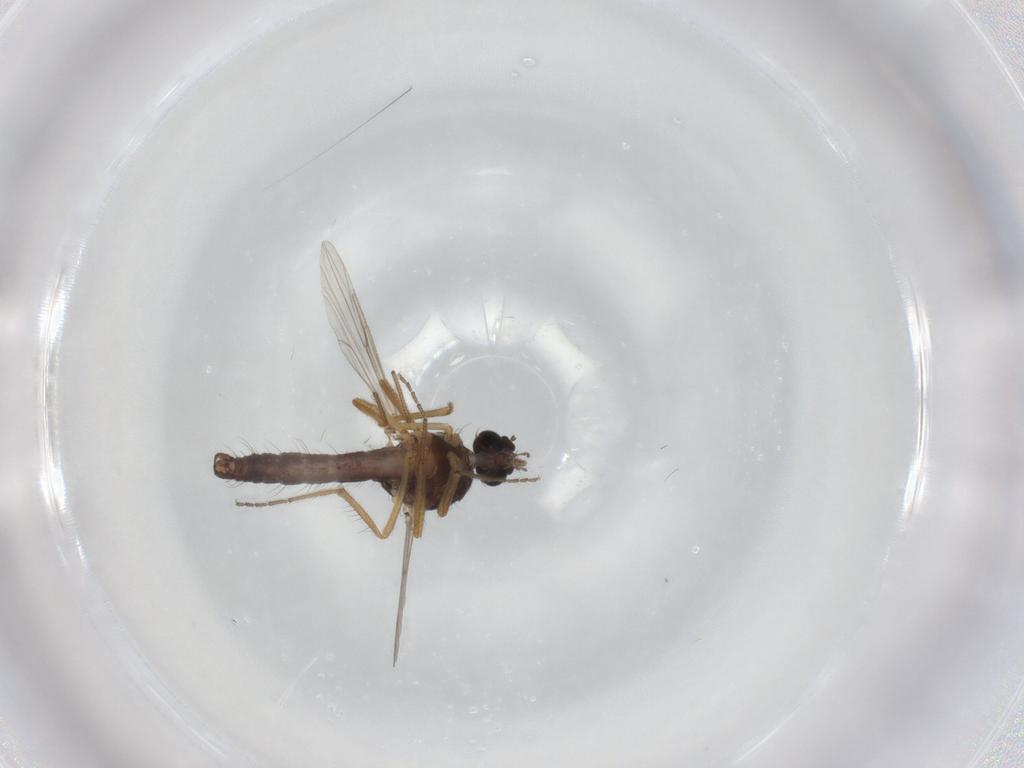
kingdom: Animalia
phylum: Arthropoda
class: Insecta
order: Diptera
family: Ceratopogonidae
